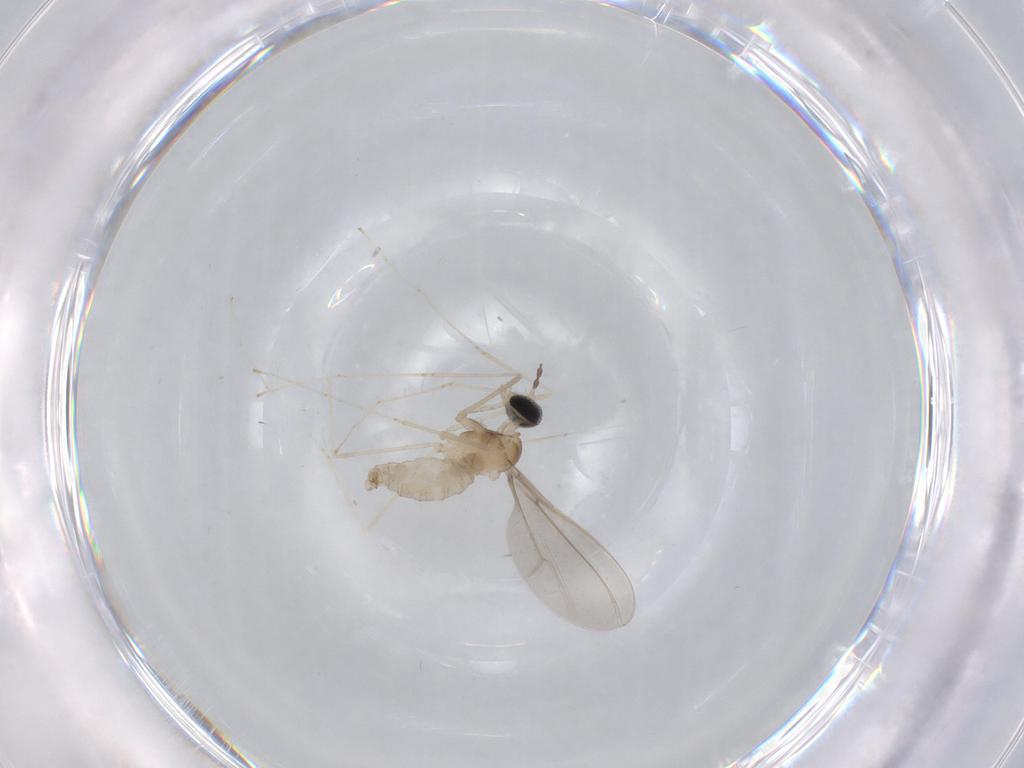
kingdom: Animalia
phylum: Arthropoda
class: Insecta
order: Diptera
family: Cecidomyiidae
